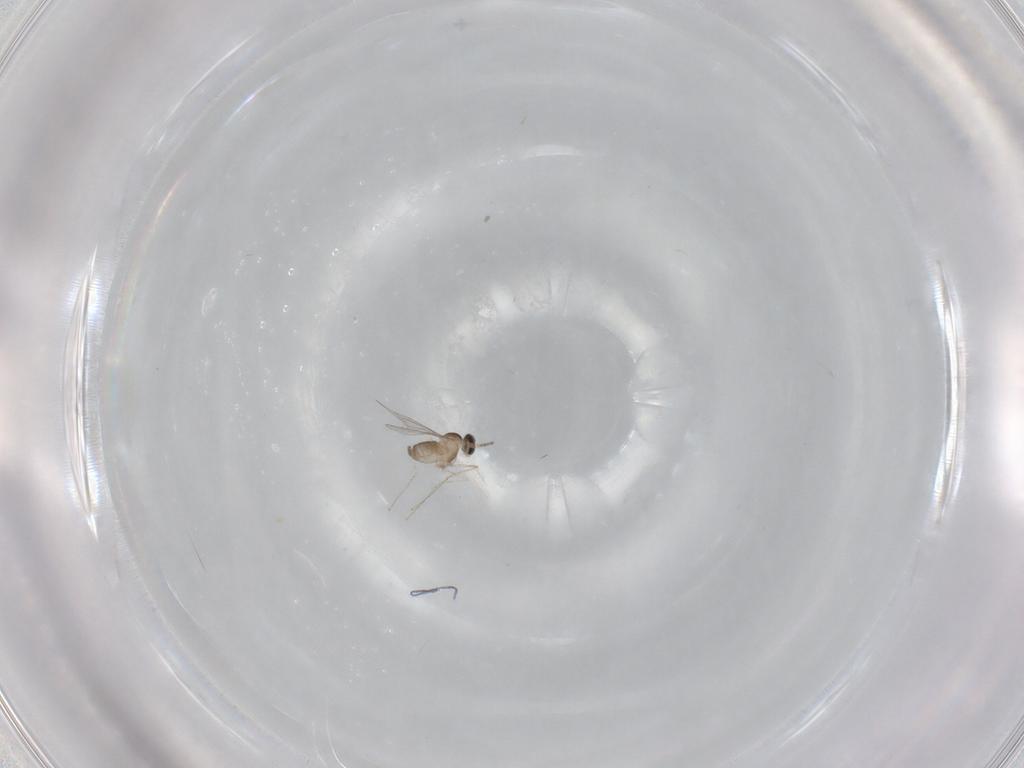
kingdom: Animalia
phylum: Arthropoda
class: Insecta
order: Diptera
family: Cecidomyiidae
